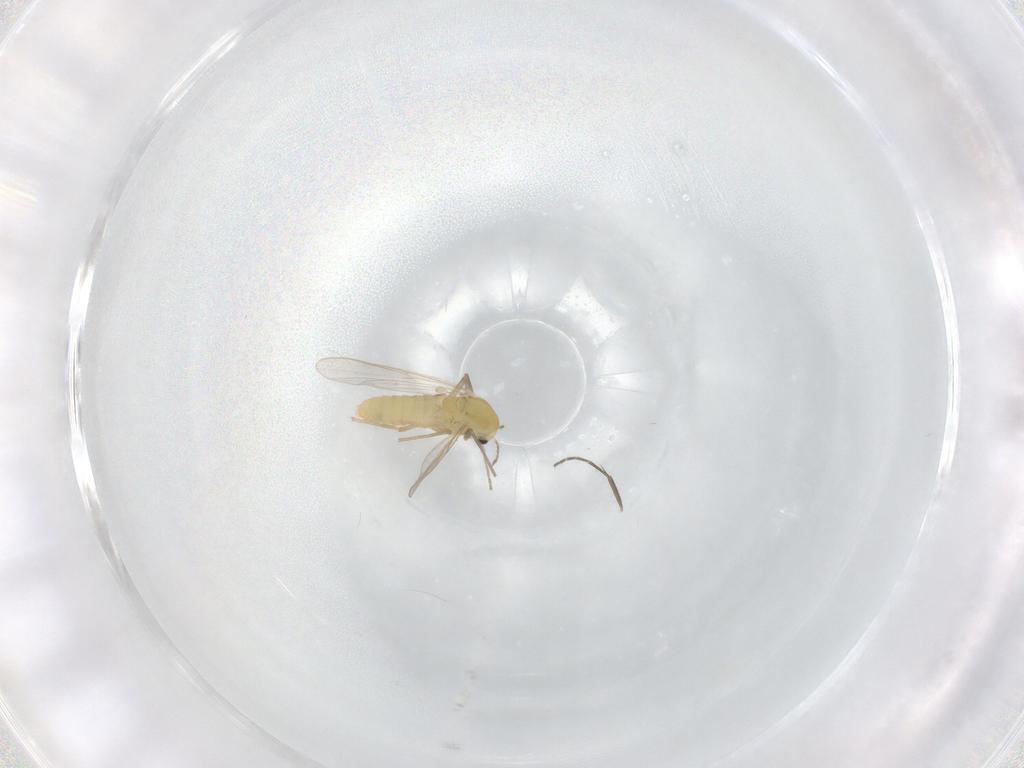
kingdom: Animalia
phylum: Arthropoda
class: Insecta
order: Diptera
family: Chironomidae
